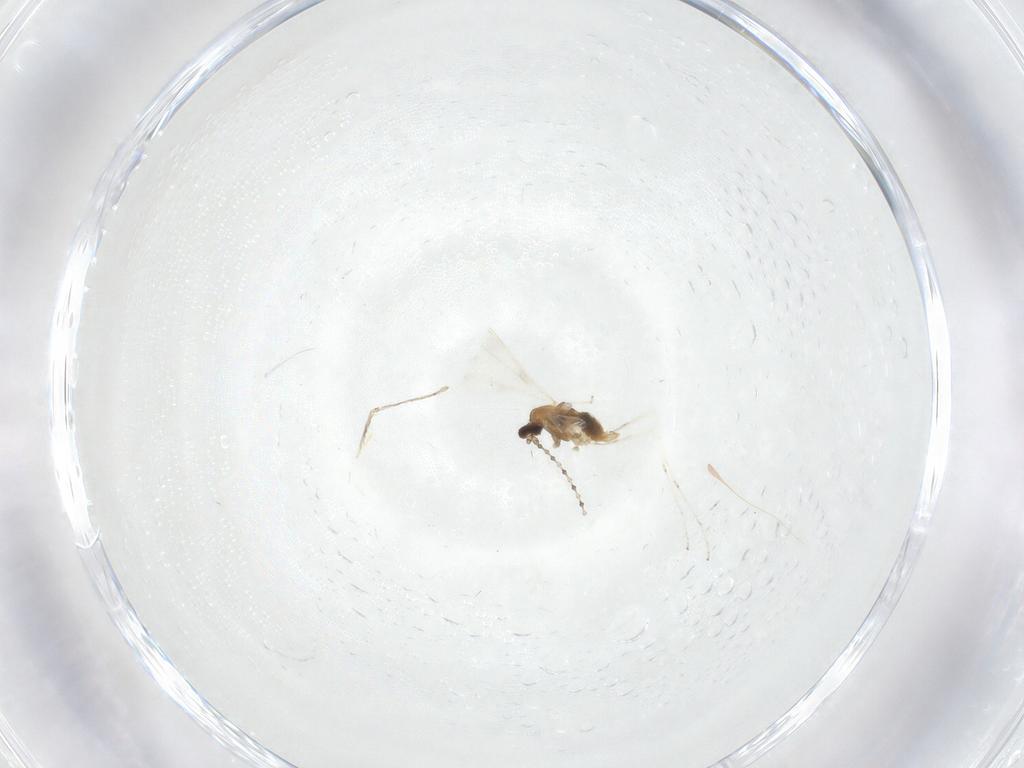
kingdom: Animalia
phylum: Arthropoda
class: Insecta
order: Diptera
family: Cecidomyiidae
